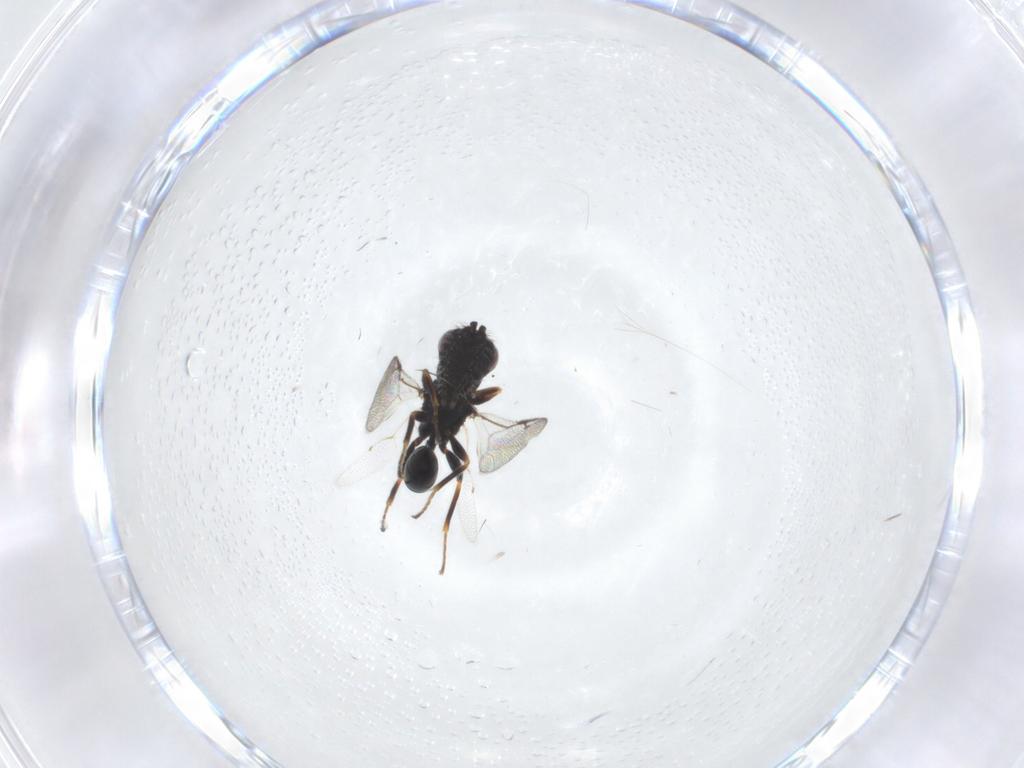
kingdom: Animalia
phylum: Arthropoda
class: Insecta
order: Hymenoptera
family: Eurytomidae
